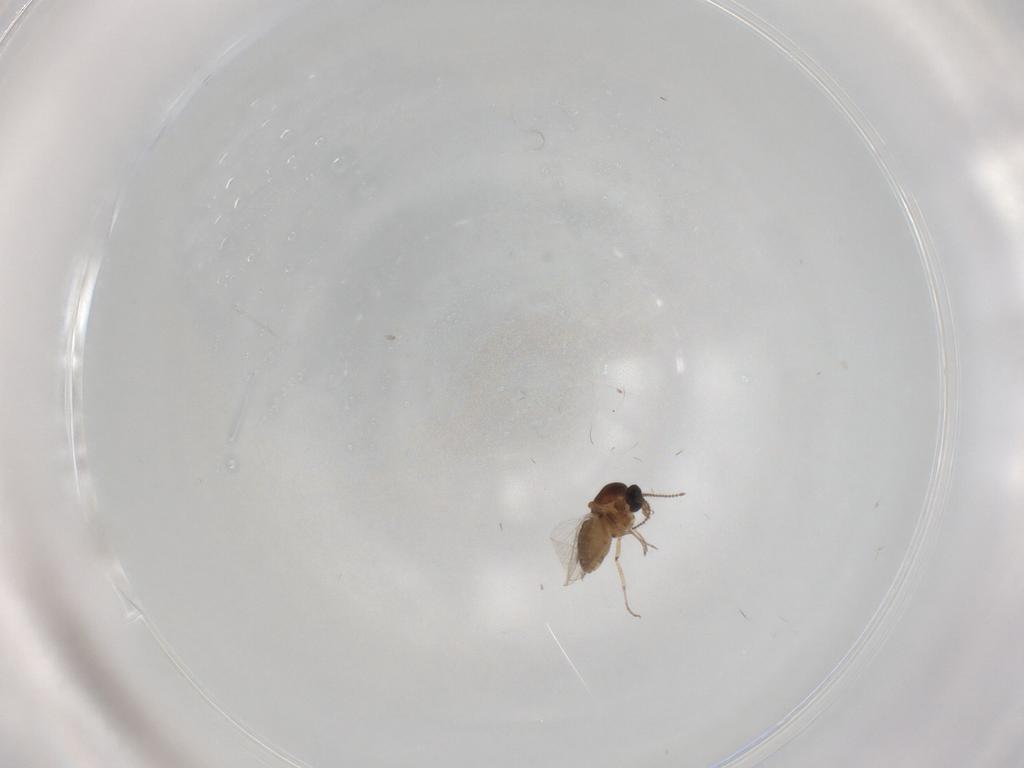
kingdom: Animalia
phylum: Arthropoda
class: Insecta
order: Diptera
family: Ceratopogonidae
